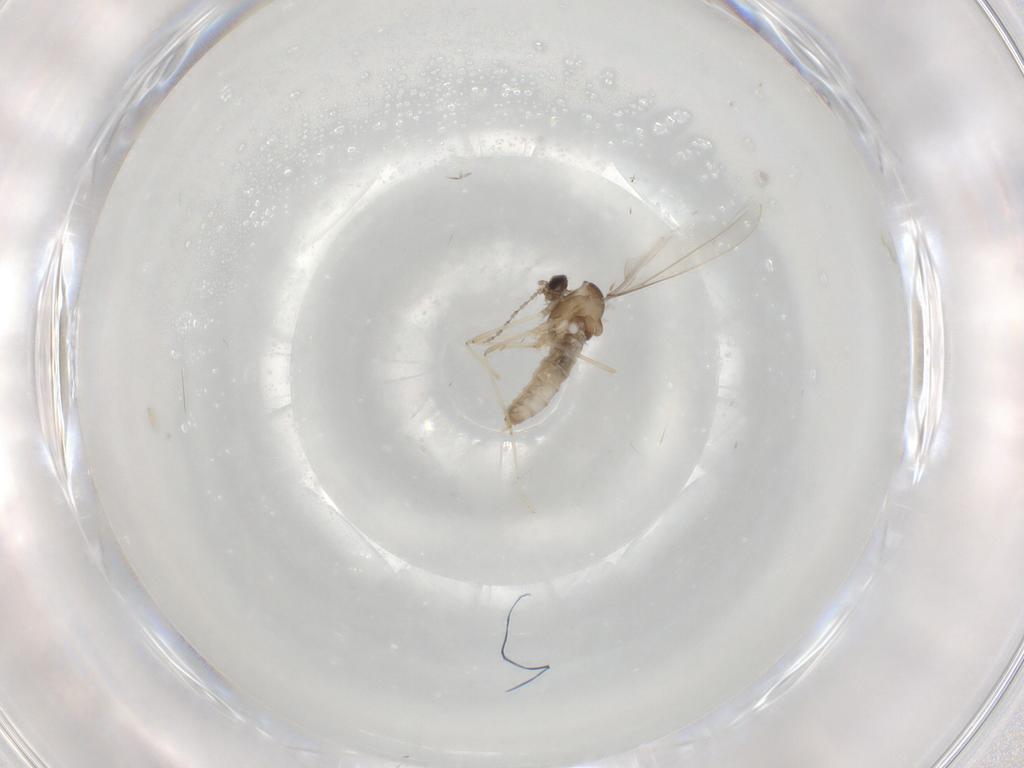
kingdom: Animalia
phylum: Arthropoda
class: Insecta
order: Diptera
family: Cecidomyiidae
